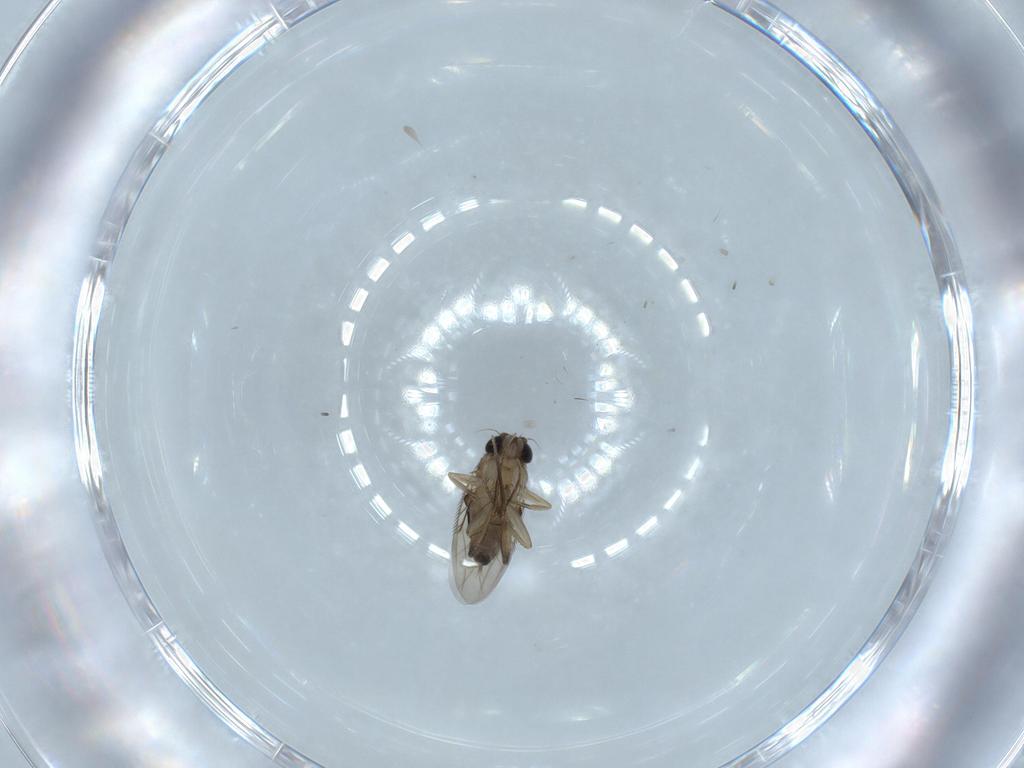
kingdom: Animalia
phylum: Arthropoda
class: Insecta
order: Diptera
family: Phoridae
